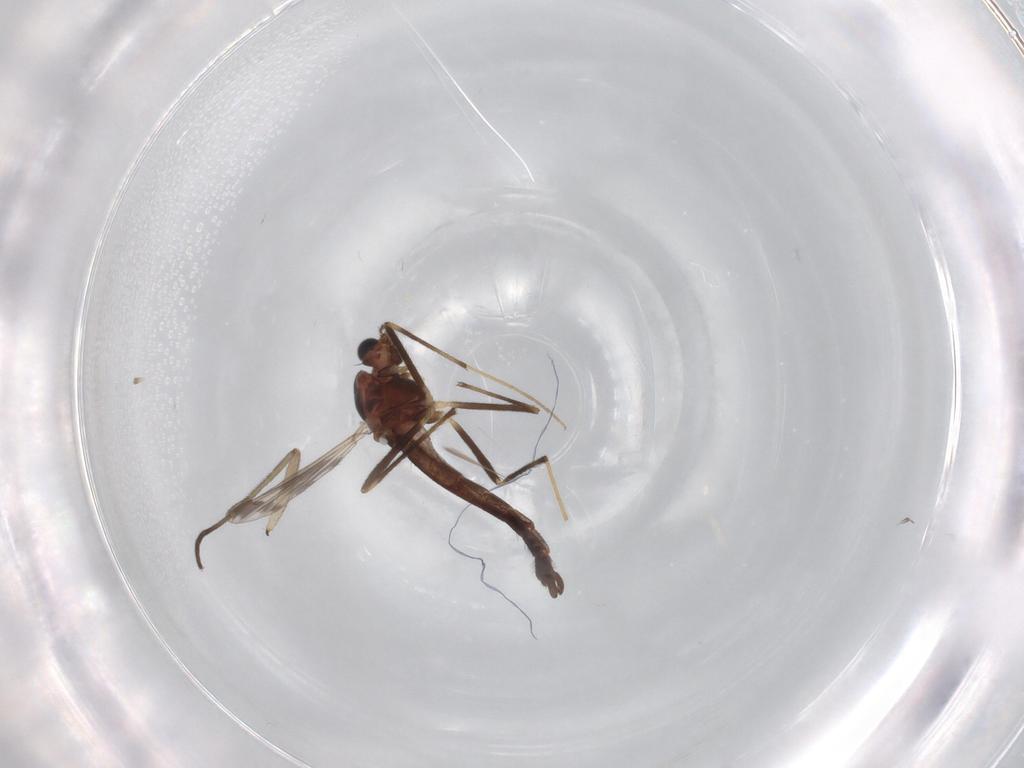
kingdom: Animalia
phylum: Arthropoda
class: Insecta
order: Diptera
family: Chironomidae
